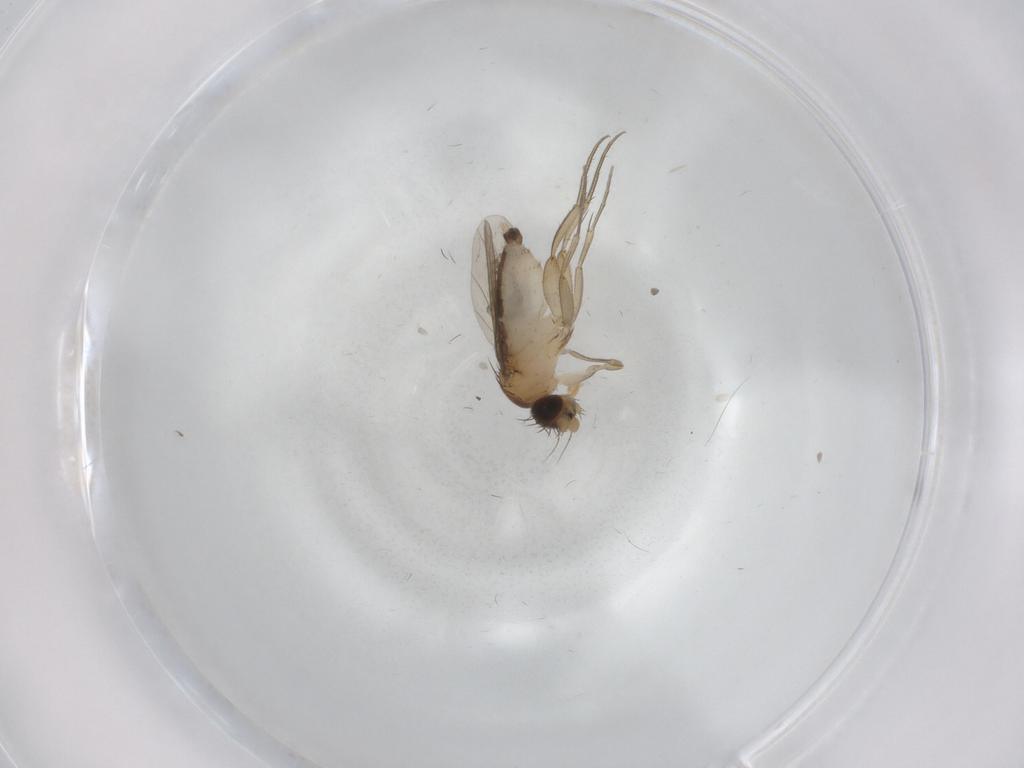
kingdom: Animalia
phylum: Arthropoda
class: Insecta
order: Diptera
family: Phoridae
